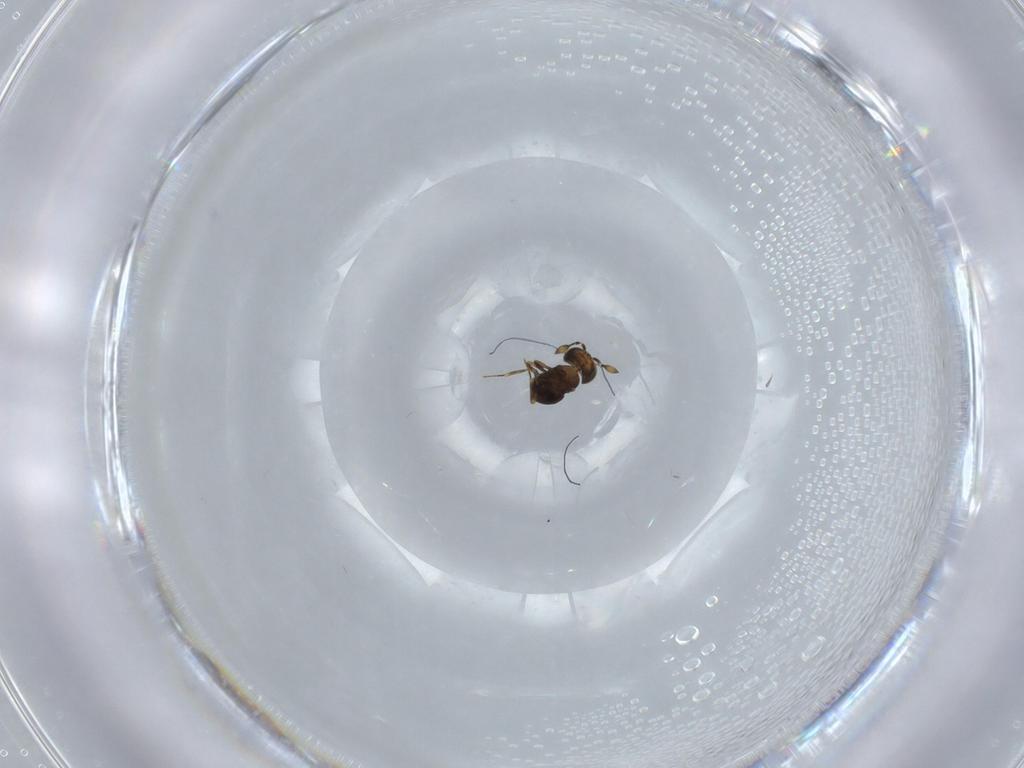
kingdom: Animalia
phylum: Arthropoda
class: Insecta
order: Hymenoptera
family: Scelionidae
